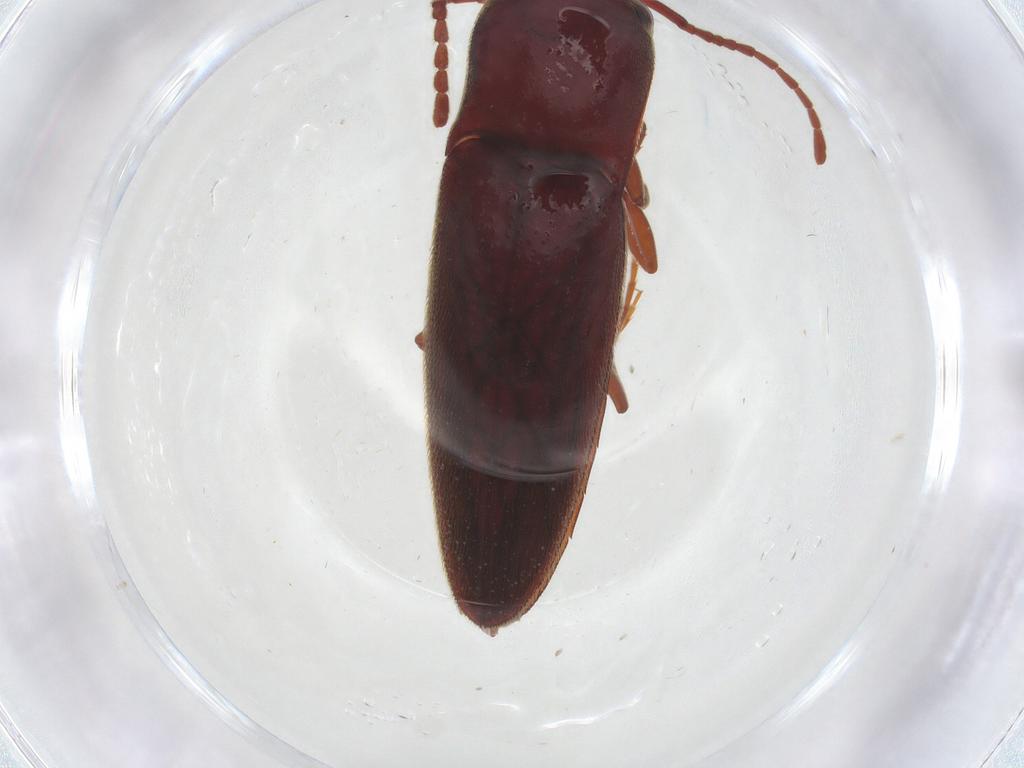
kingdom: Animalia
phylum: Arthropoda
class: Insecta
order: Coleoptera
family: Eucnemidae
